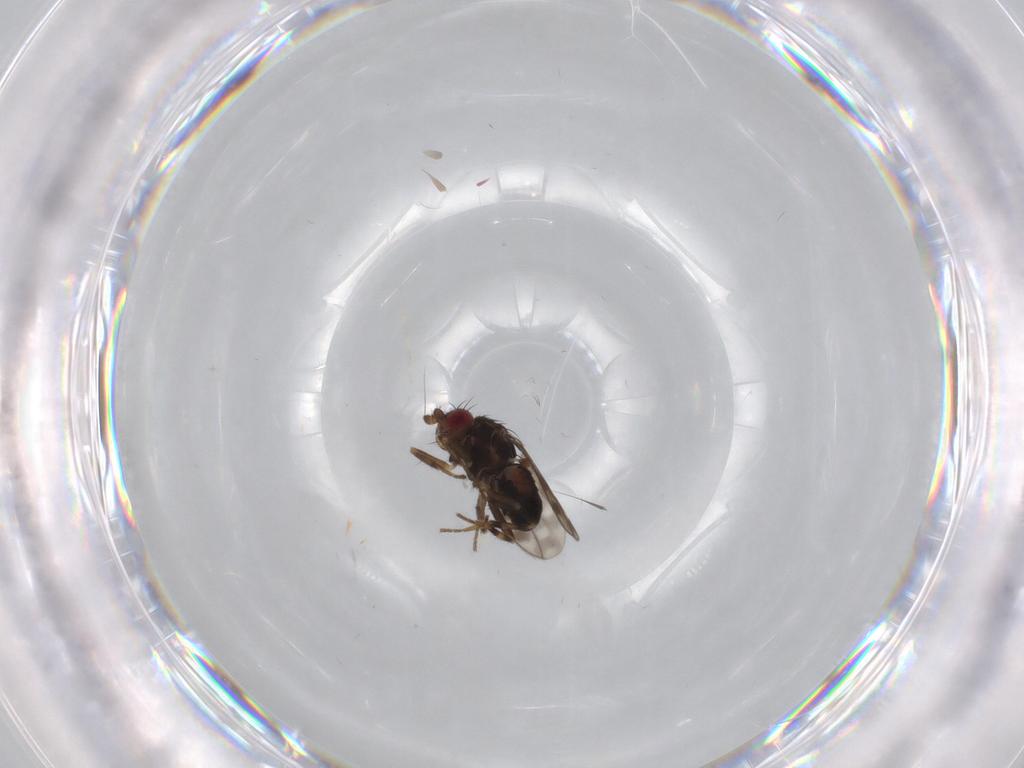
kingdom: Animalia
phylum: Arthropoda
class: Insecta
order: Diptera
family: Sphaeroceridae
